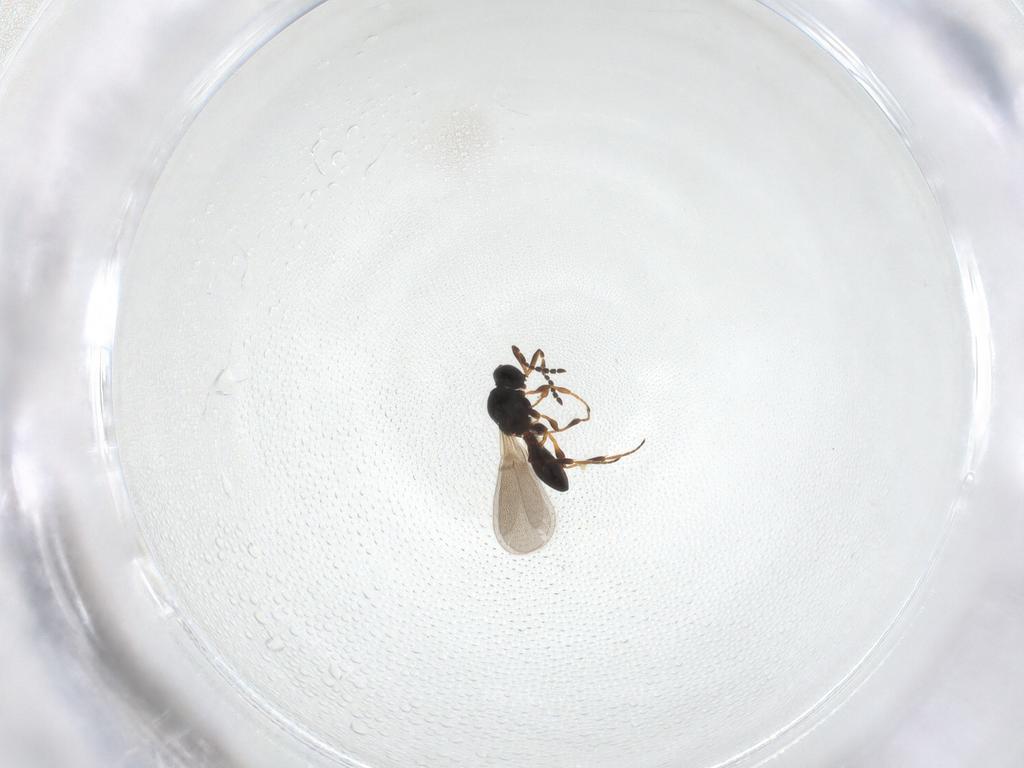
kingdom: Animalia
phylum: Arthropoda
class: Insecta
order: Hymenoptera
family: Platygastridae
